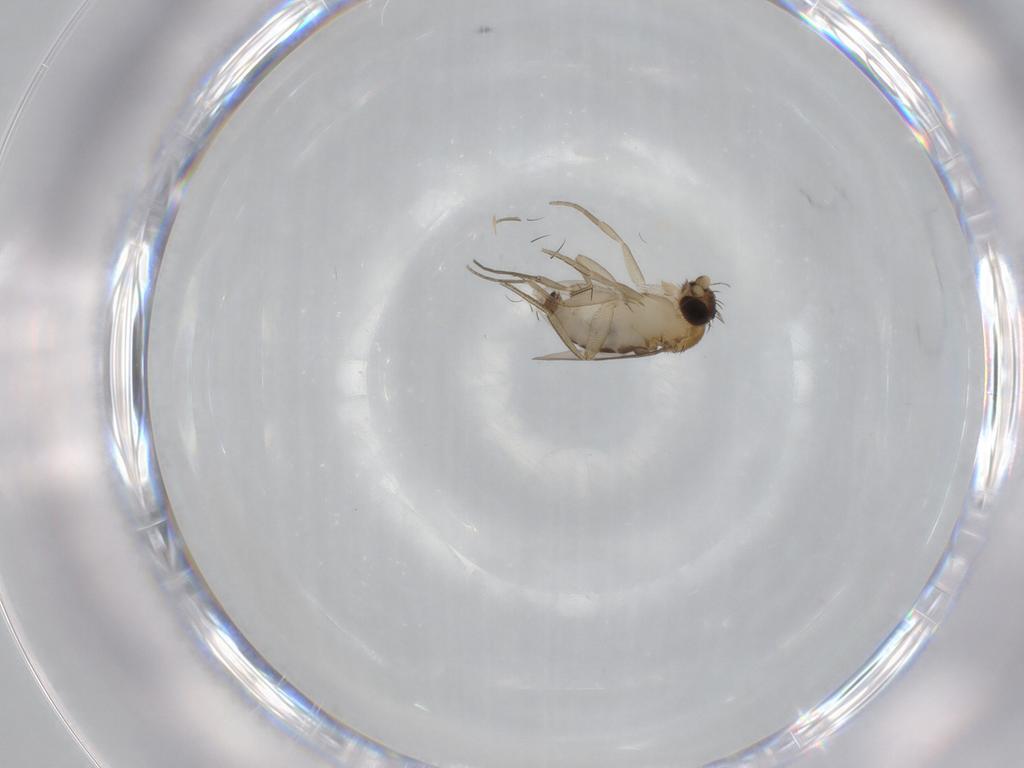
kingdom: Animalia
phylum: Arthropoda
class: Insecta
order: Diptera
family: Phoridae
